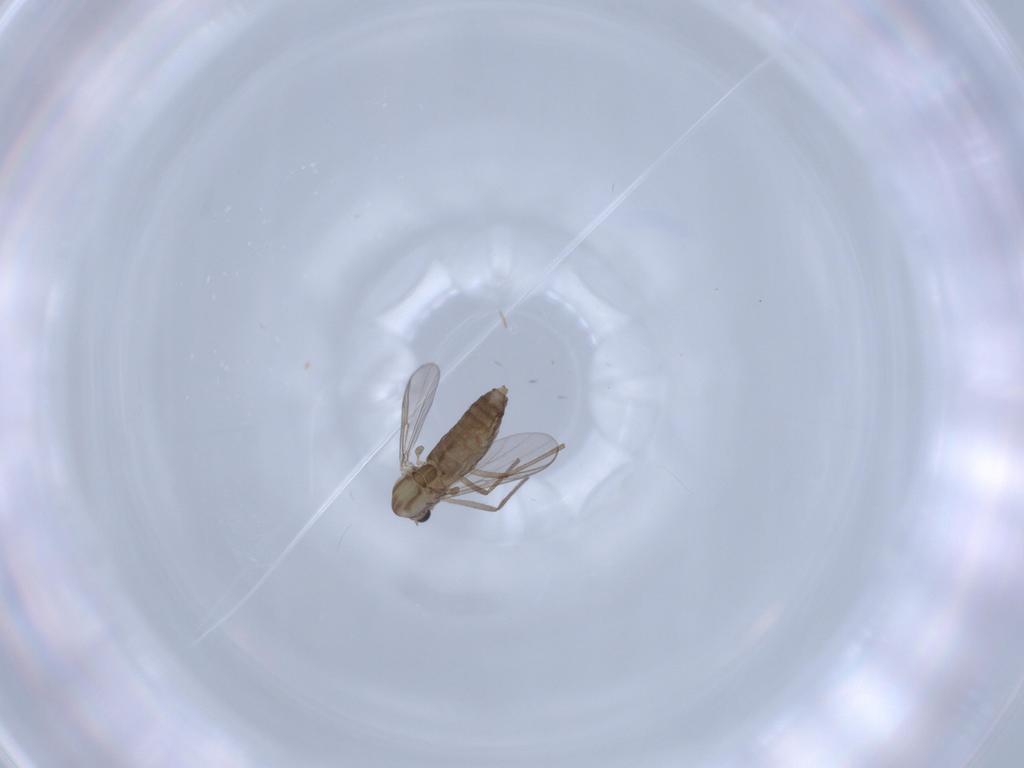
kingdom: Animalia
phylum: Arthropoda
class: Insecta
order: Diptera
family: Chironomidae
